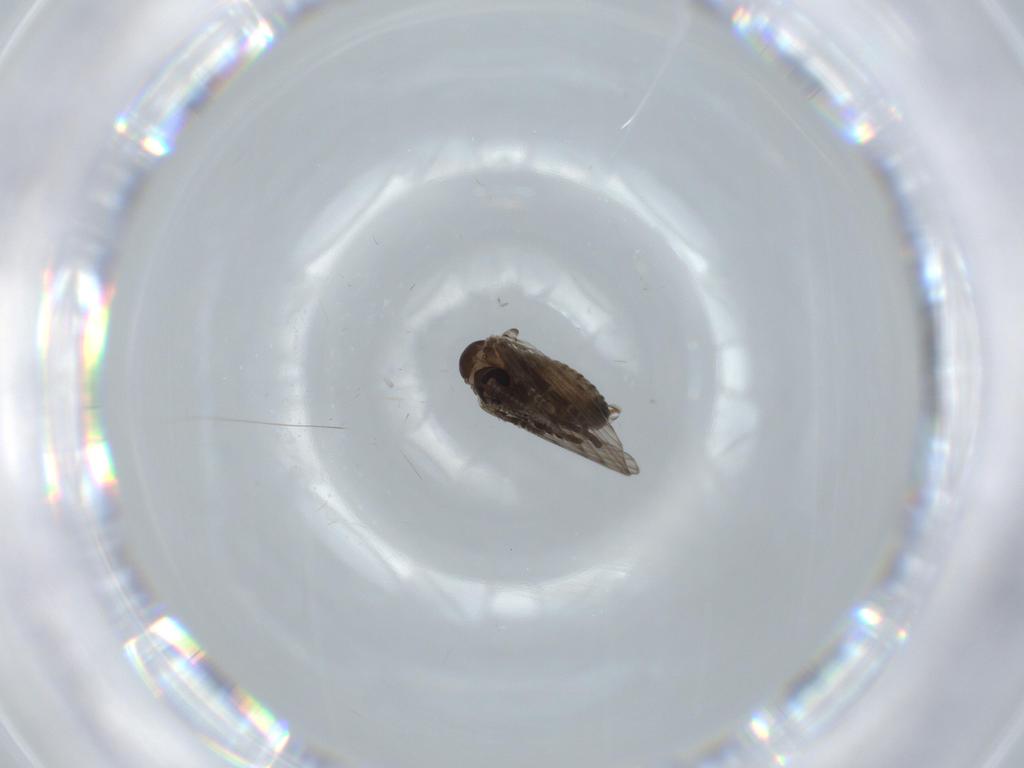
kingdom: Animalia
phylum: Arthropoda
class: Insecta
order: Diptera
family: Psychodidae
